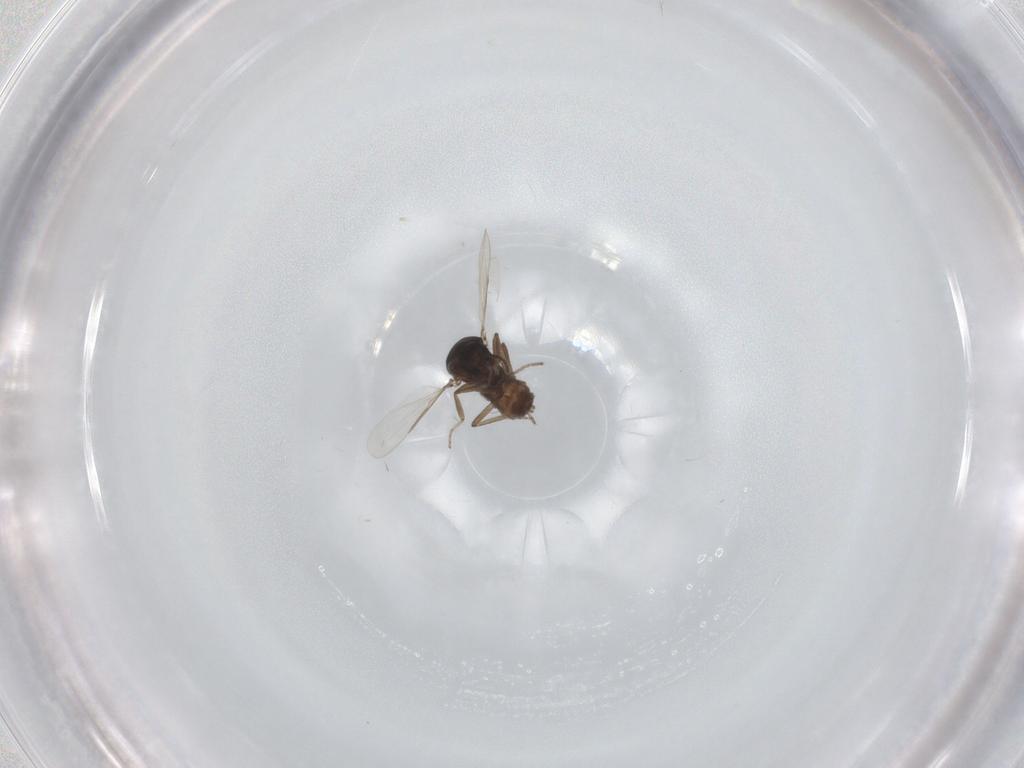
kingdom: Animalia
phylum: Arthropoda
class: Insecta
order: Diptera
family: Ceratopogonidae
